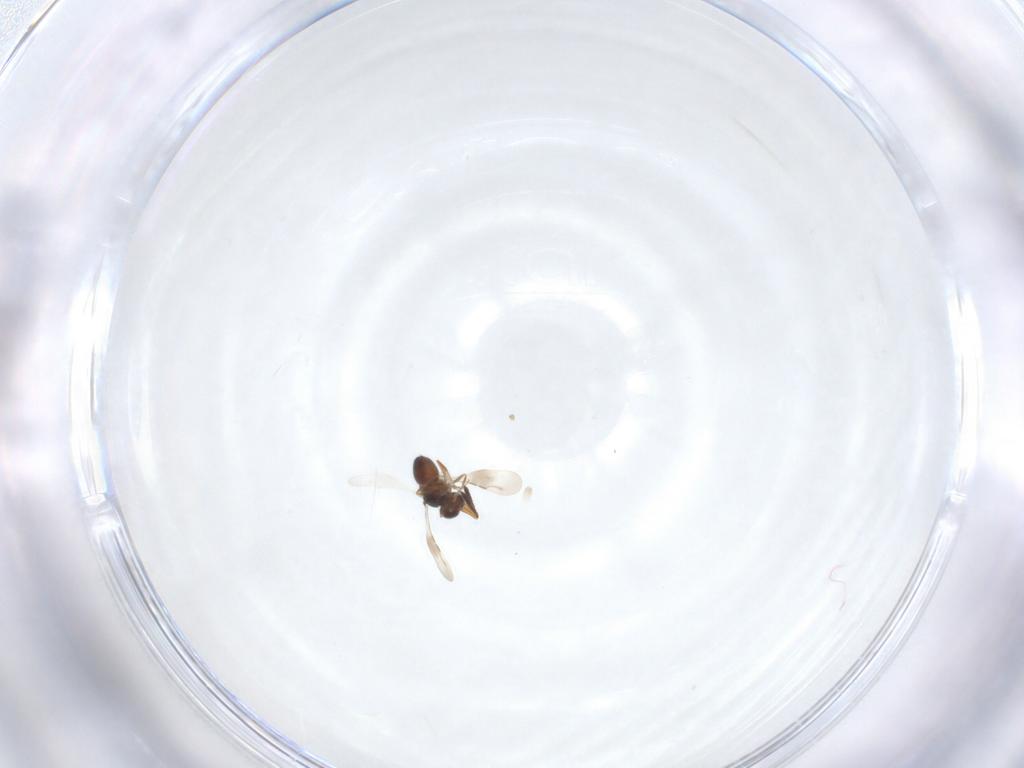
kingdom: Animalia
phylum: Arthropoda
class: Insecta
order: Hymenoptera
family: Ceraphronidae
